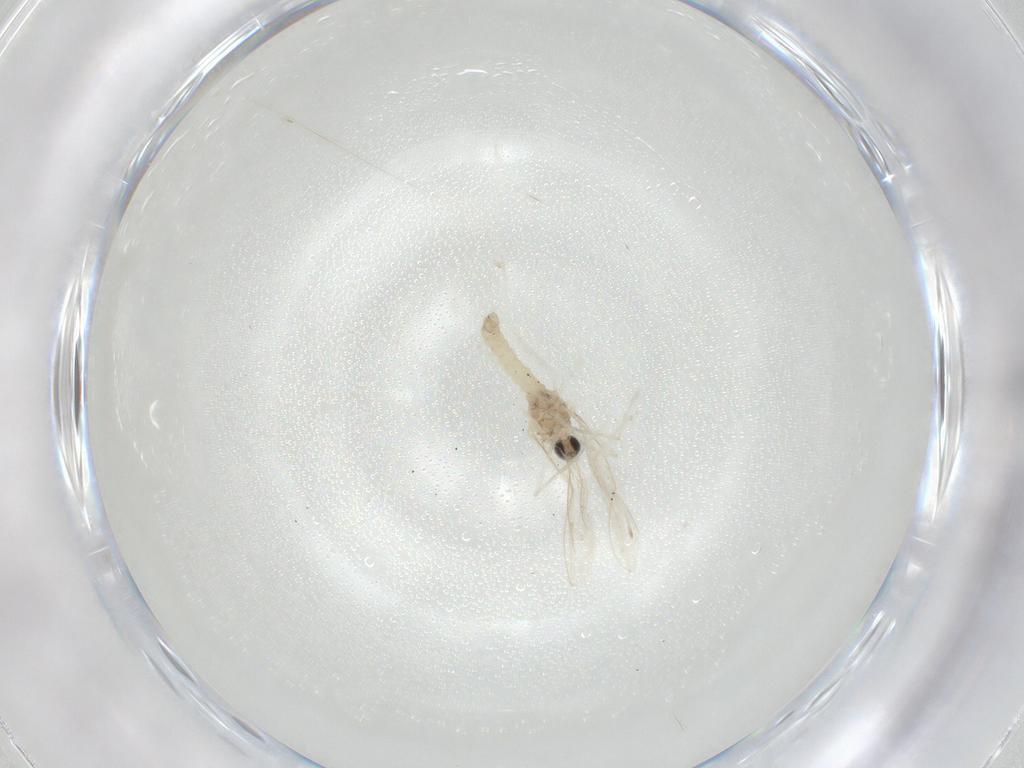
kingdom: Animalia
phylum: Arthropoda
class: Insecta
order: Diptera
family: Cecidomyiidae
